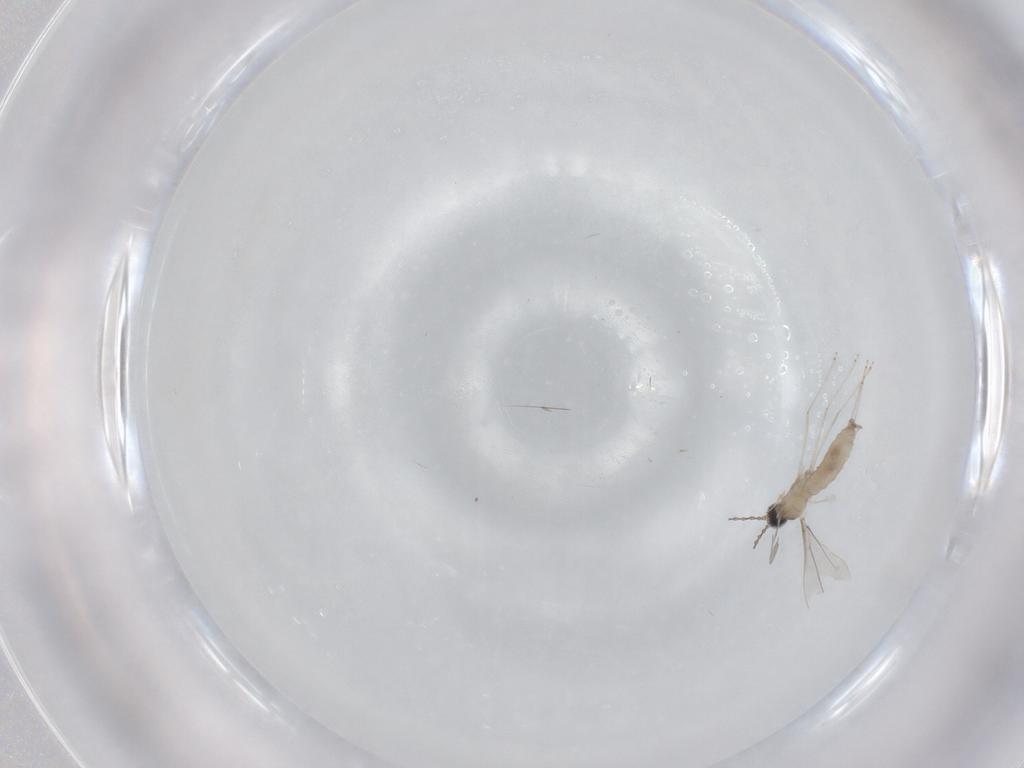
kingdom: Animalia
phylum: Arthropoda
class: Insecta
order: Diptera
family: Cecidomyiidae
